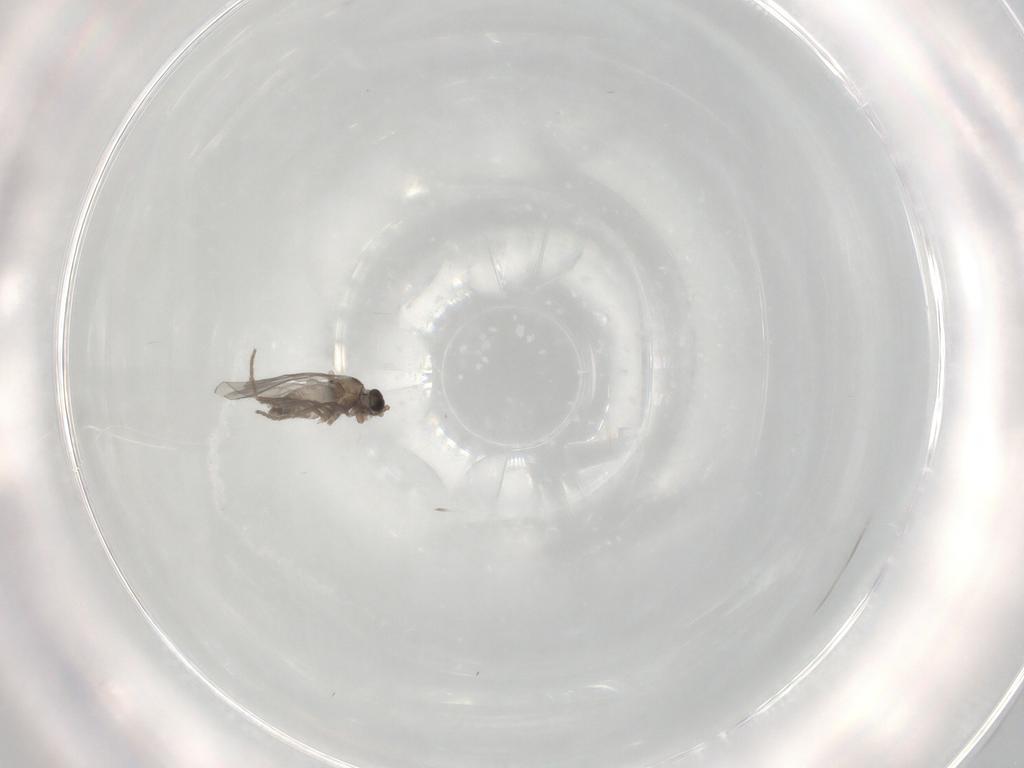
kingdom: Animalia
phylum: Arthropoda
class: Insecta
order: Diptera
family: Cecidomyiidae
